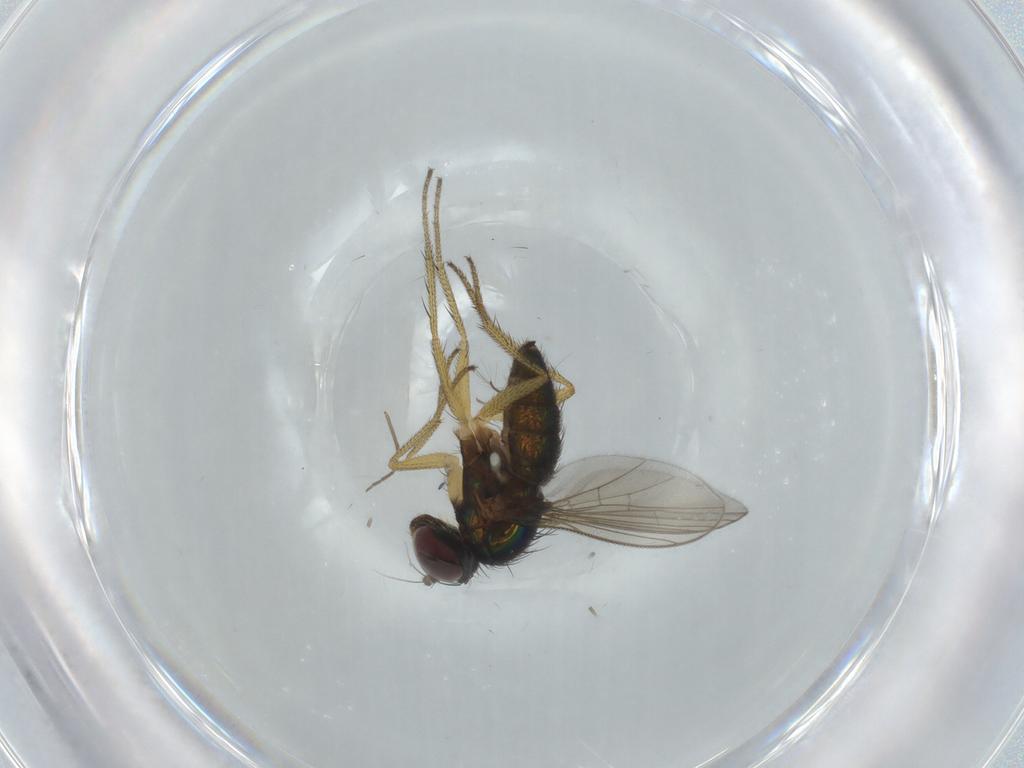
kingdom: Animalia
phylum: Arthropoda
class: Insecta
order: Diptera
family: Dolichopodidae
